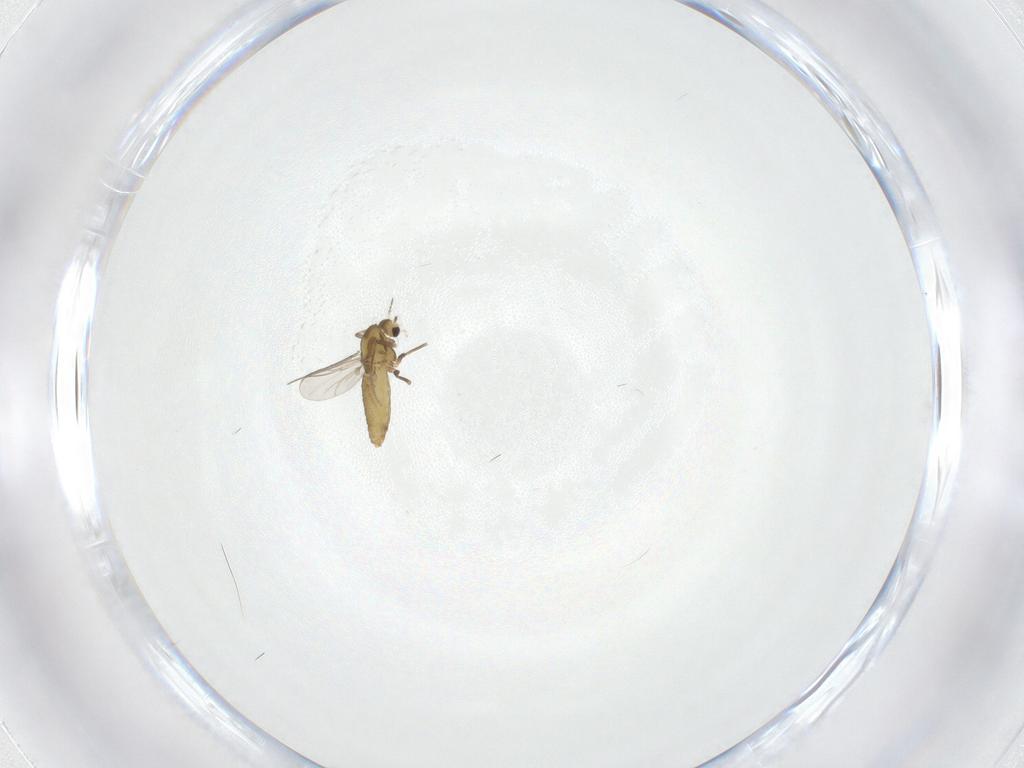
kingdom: Animalia
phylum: Arthropoda
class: Insecta
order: Diptera
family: Chironomidae
